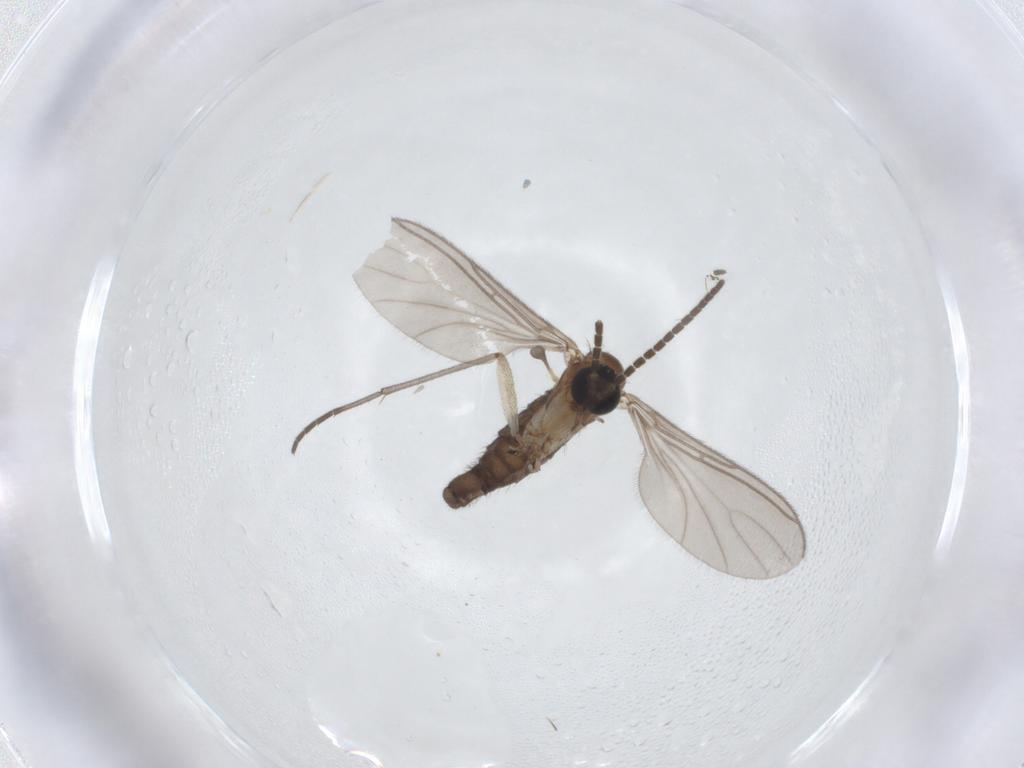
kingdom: Animalia
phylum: Arthropoda
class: Insecta
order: Diptera
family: Sciaridae
